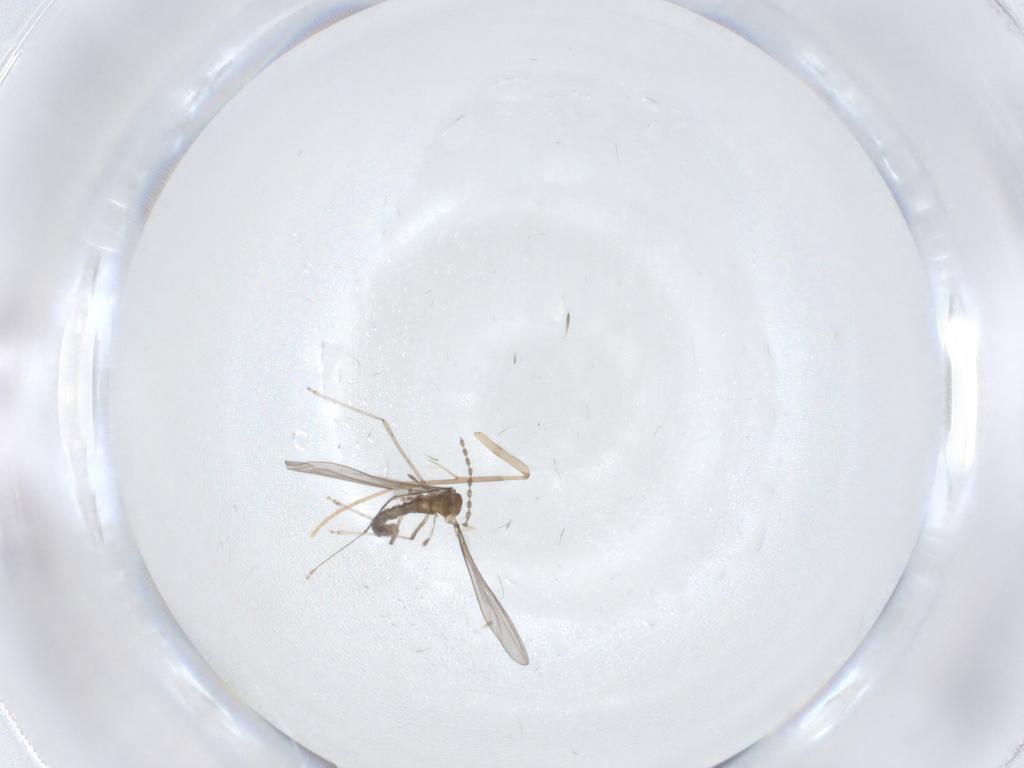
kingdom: Animalia
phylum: Arthropoda
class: Insecta
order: Diptera
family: Cecidomyiidae
